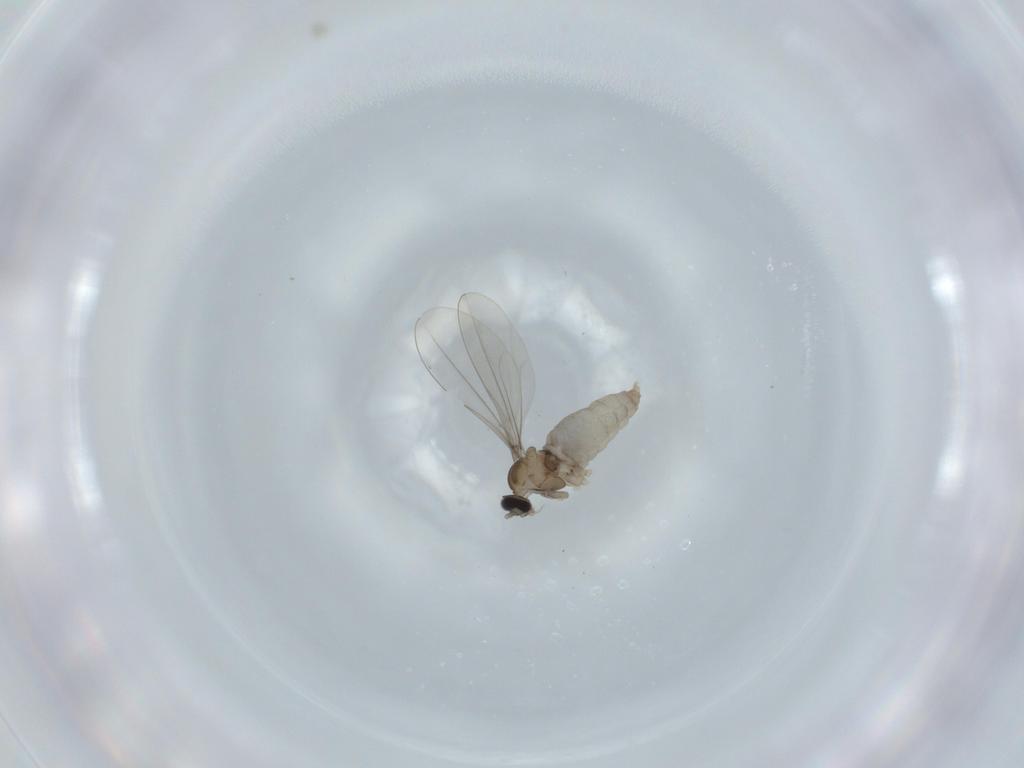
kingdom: Animalia
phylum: Arthropoda
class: Insecta
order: Diptera
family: Cecidomyiidae
